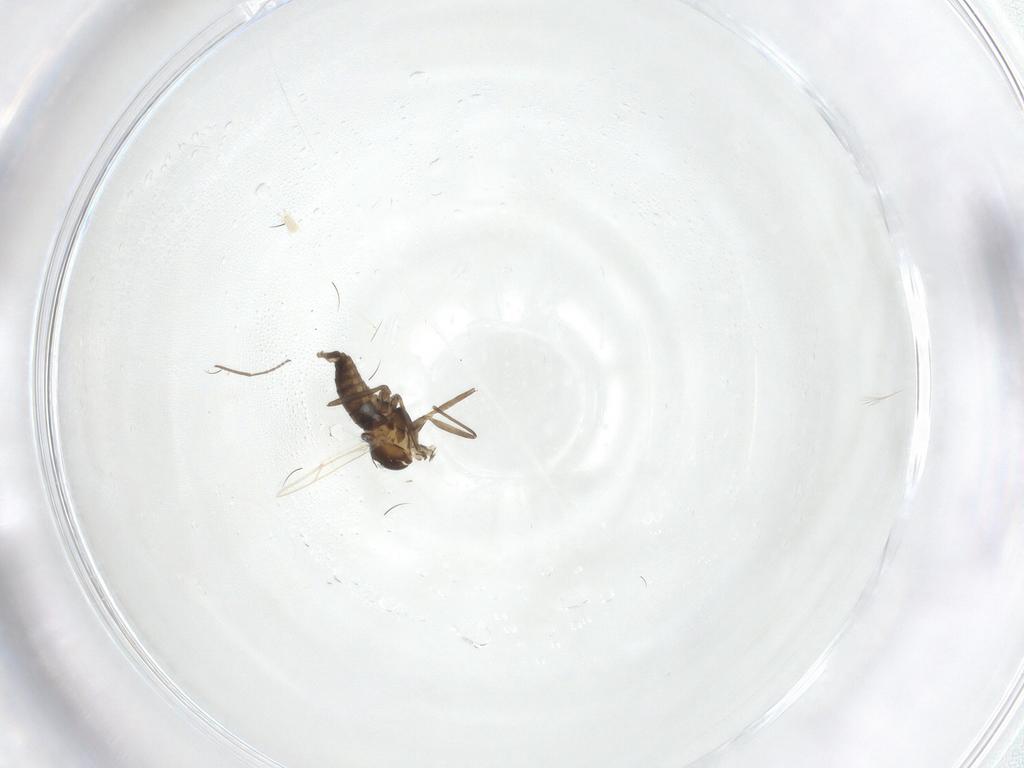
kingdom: Animalia
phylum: Arthropoda
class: Insecta
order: Diptera
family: Cecidomyiidae
